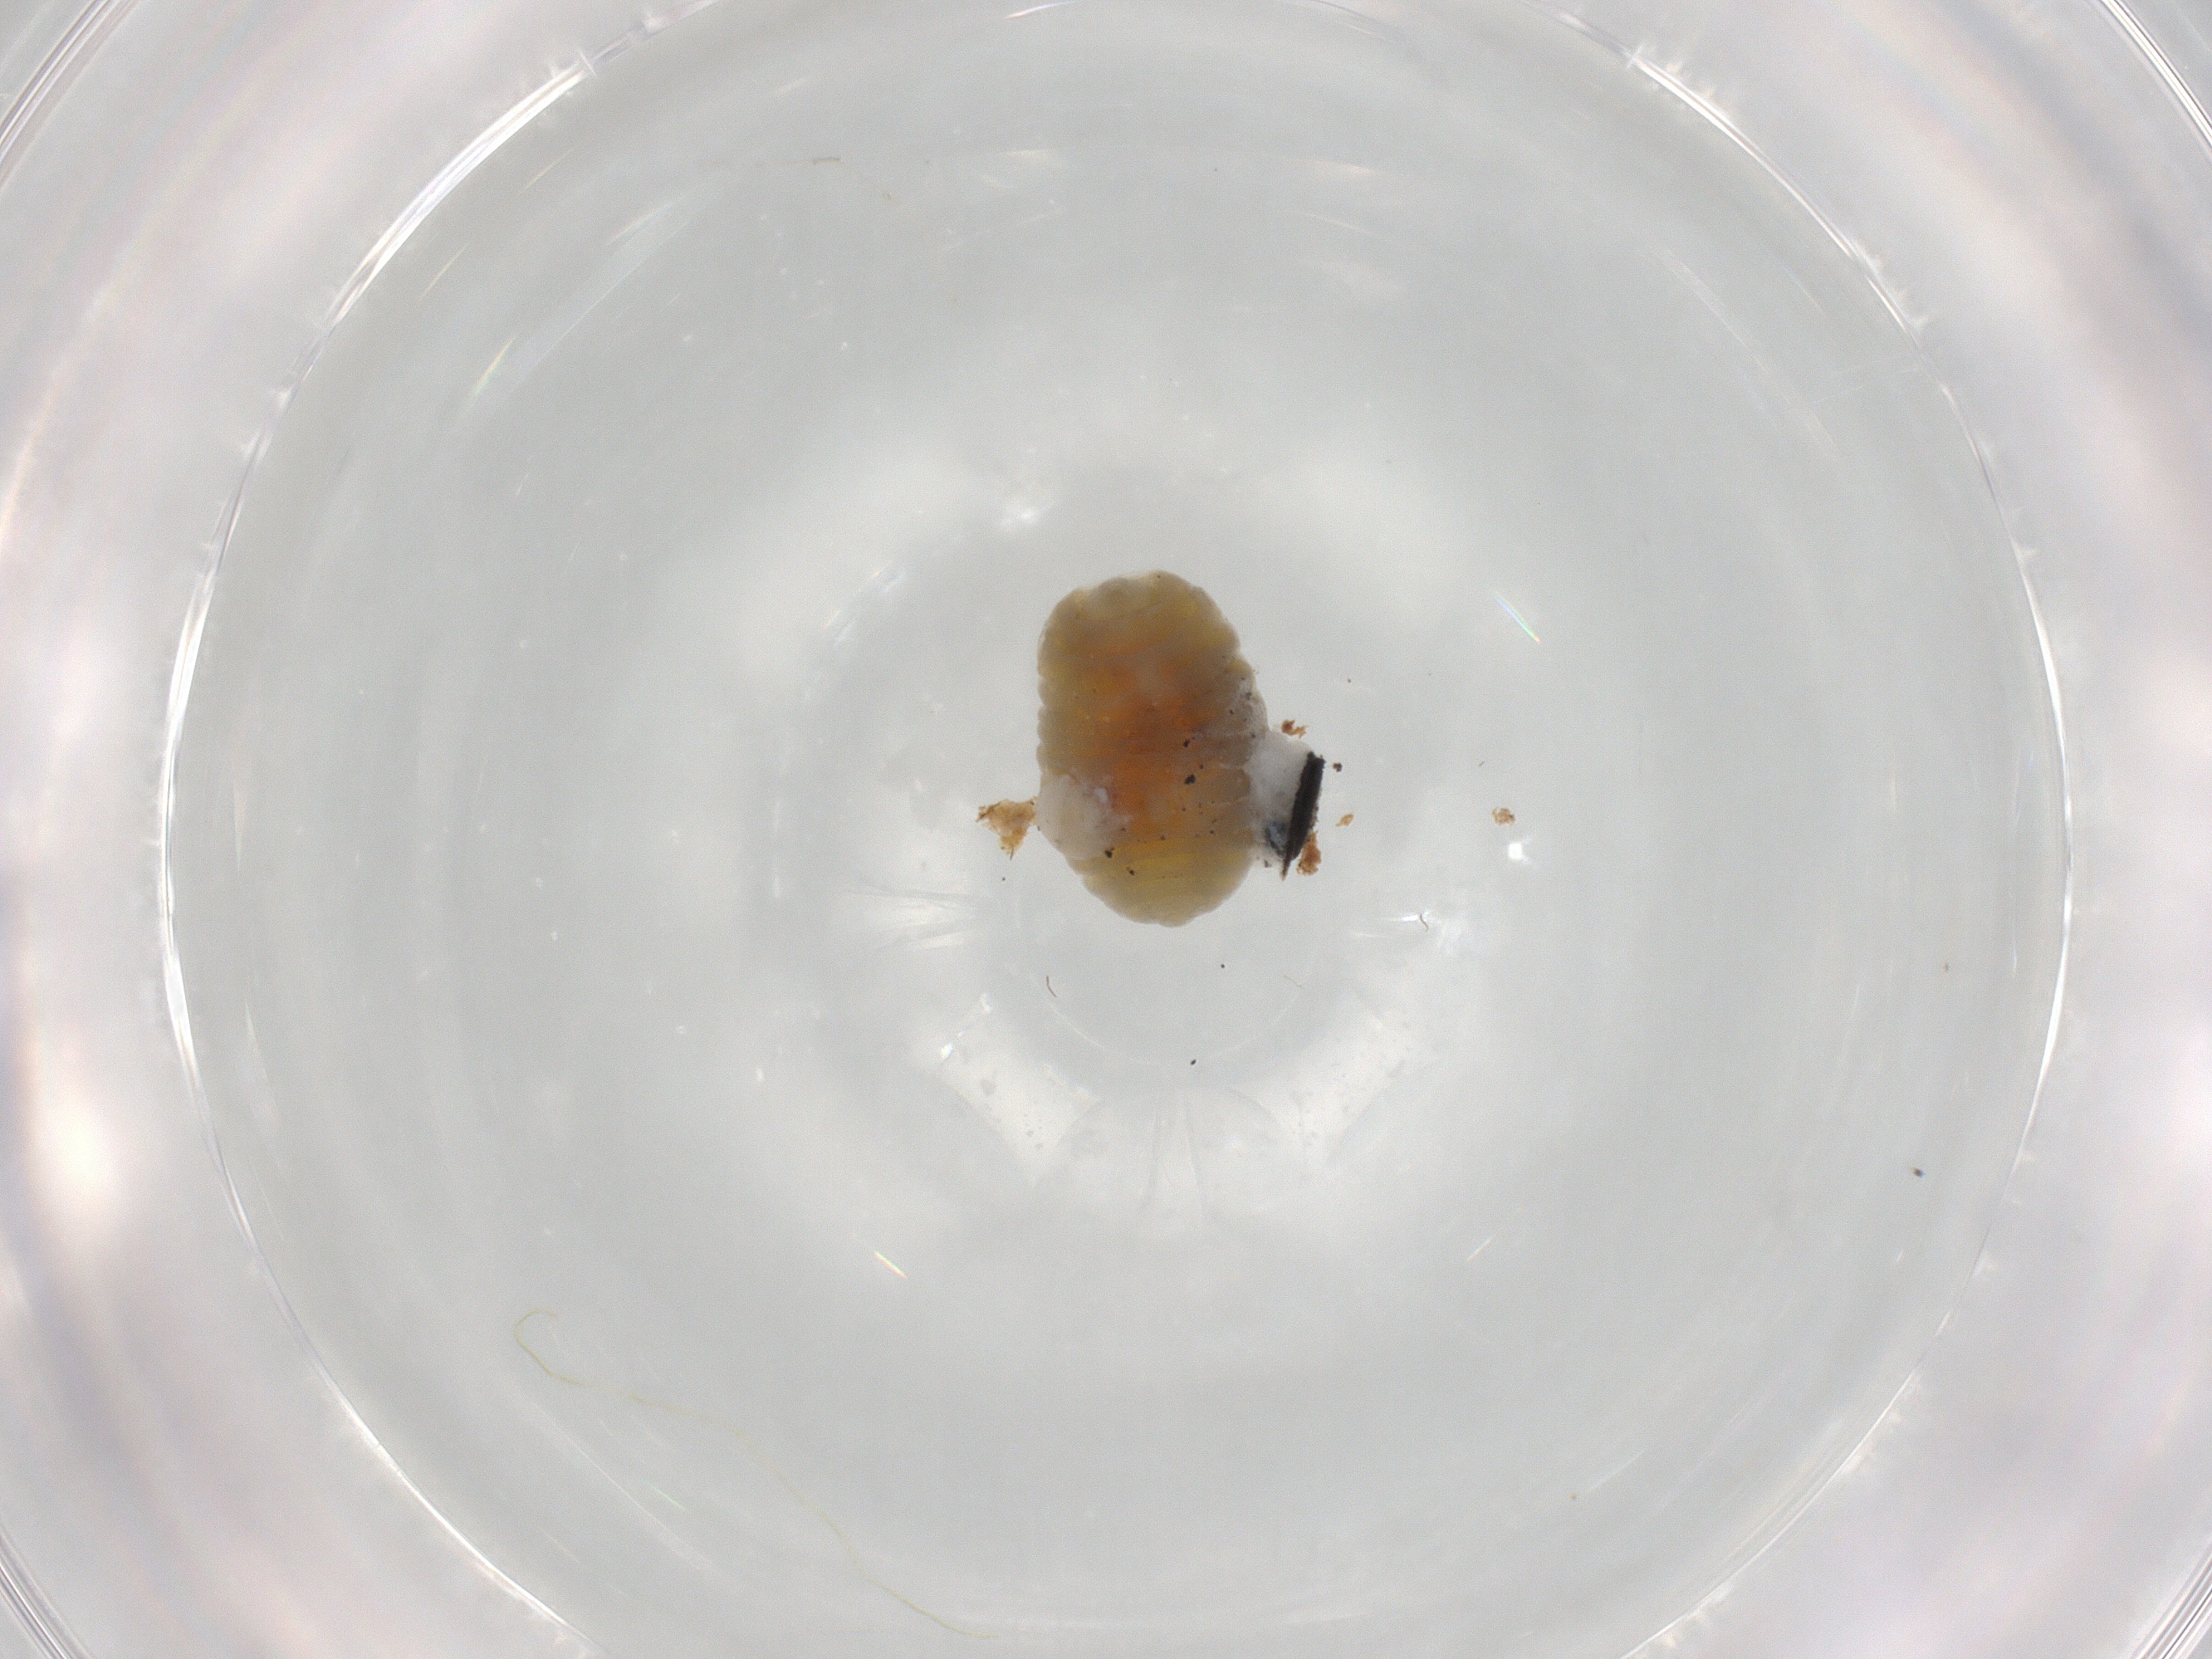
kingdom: Animalia
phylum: Arthropoda
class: Insecta
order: Hymenoptera
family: Eulophidae
